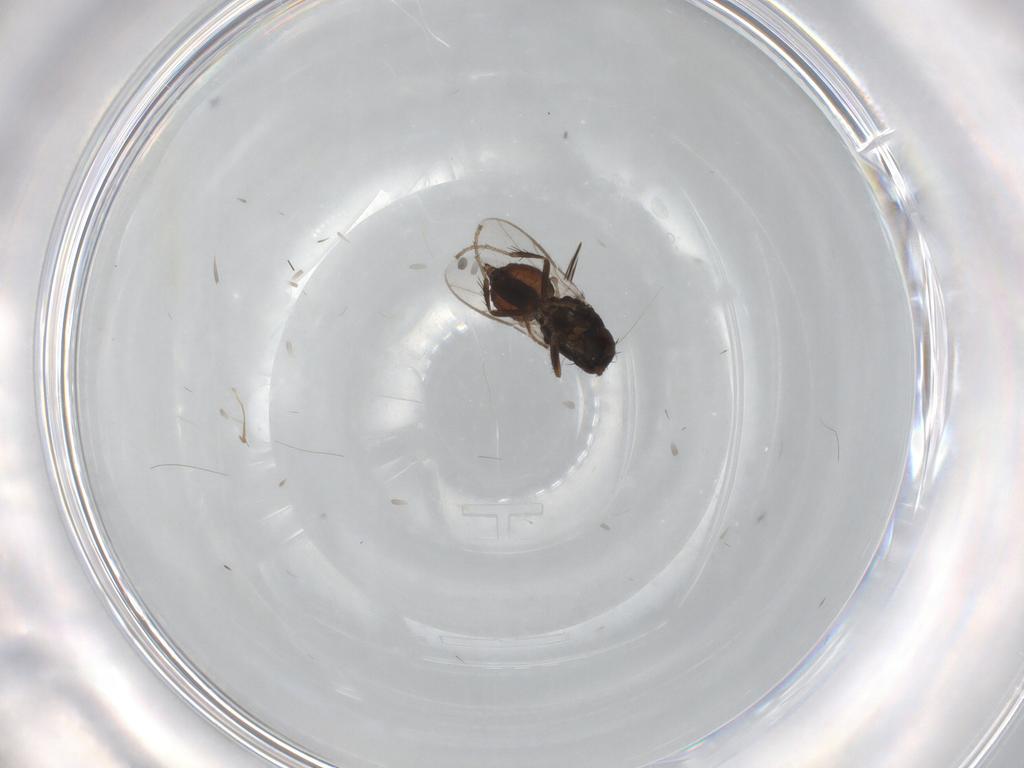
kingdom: Animalia
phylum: Arthropoda
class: Insecta
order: Diptera
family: Sphaeroceridae
